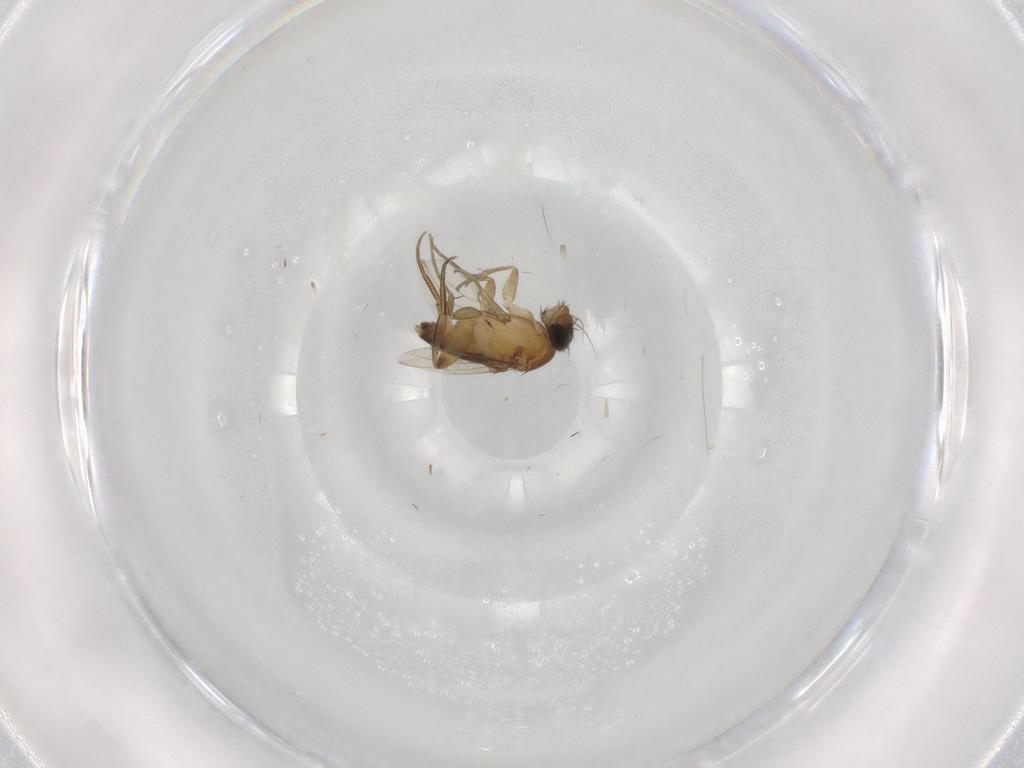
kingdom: Animalia
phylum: Arthropoda
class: Insecta
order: Diptera
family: Phoridae
